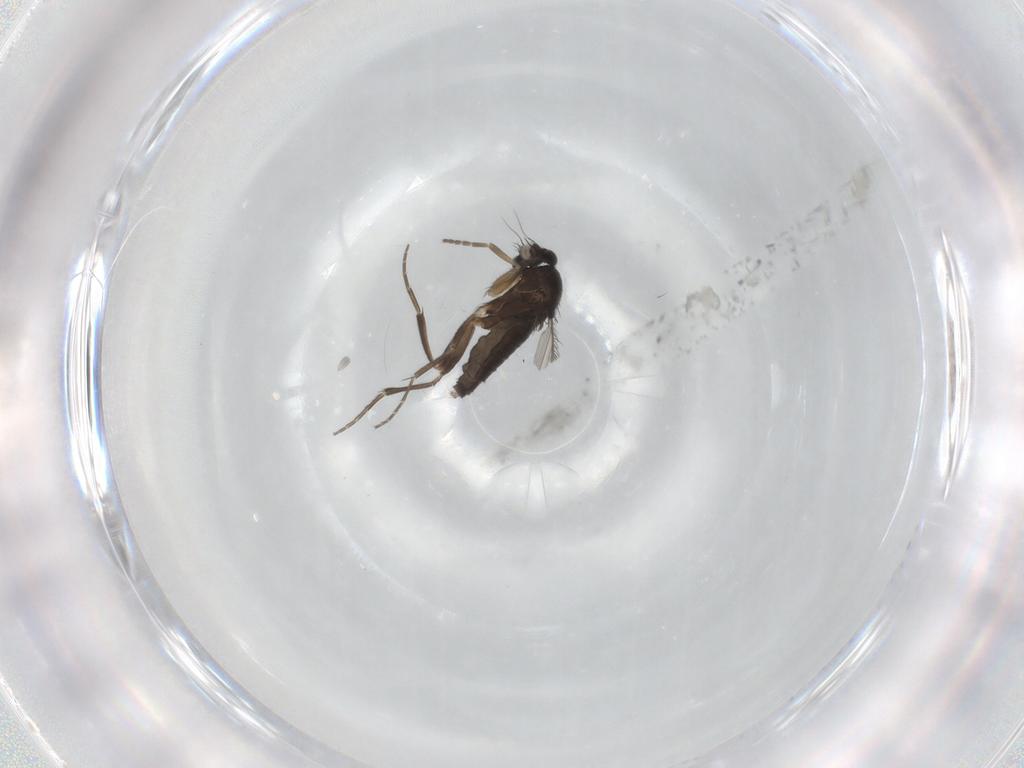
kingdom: Animalia
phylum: Arthropoda
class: Insecta
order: Diptera
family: Phoridae
